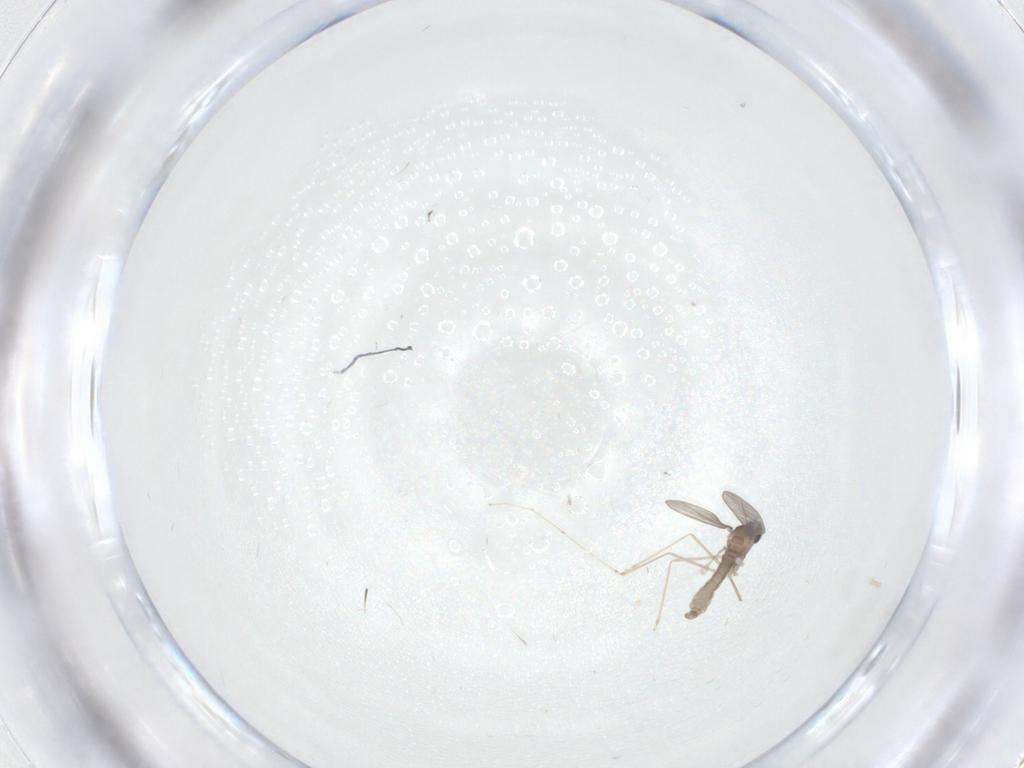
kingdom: Animalia
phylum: Arthropoda
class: Insecta
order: Diptera
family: Cecidomyiidae
